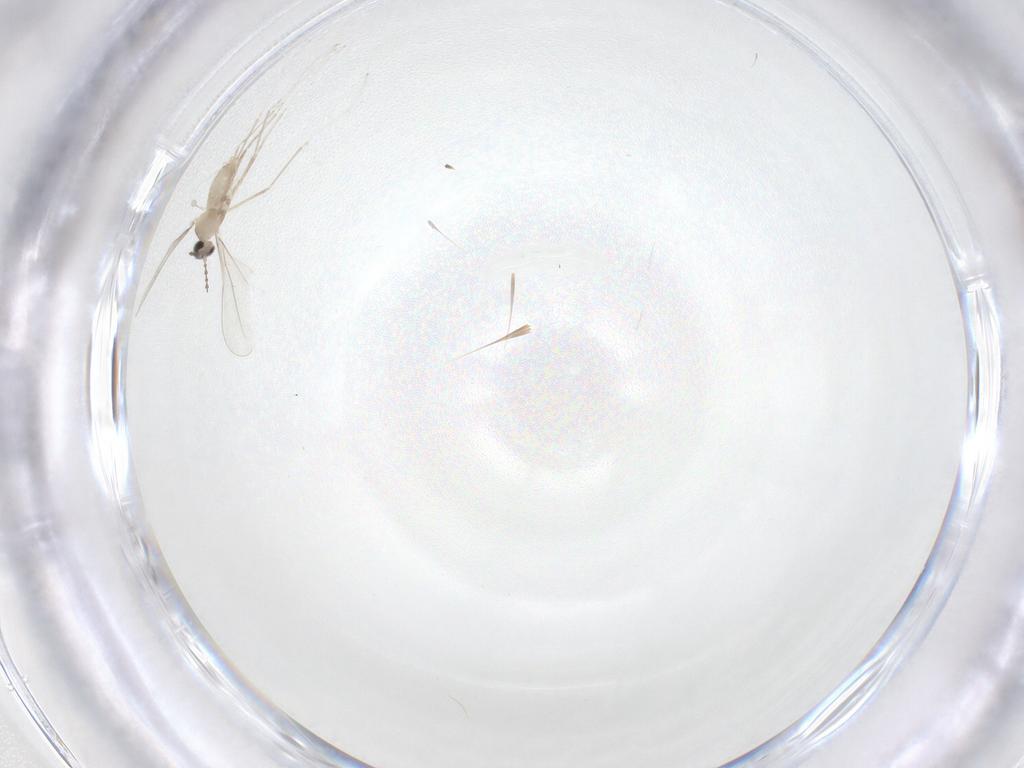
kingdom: Animalia
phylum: Arthropoda
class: Insecta
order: Diptera
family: Cecidomyiidae
